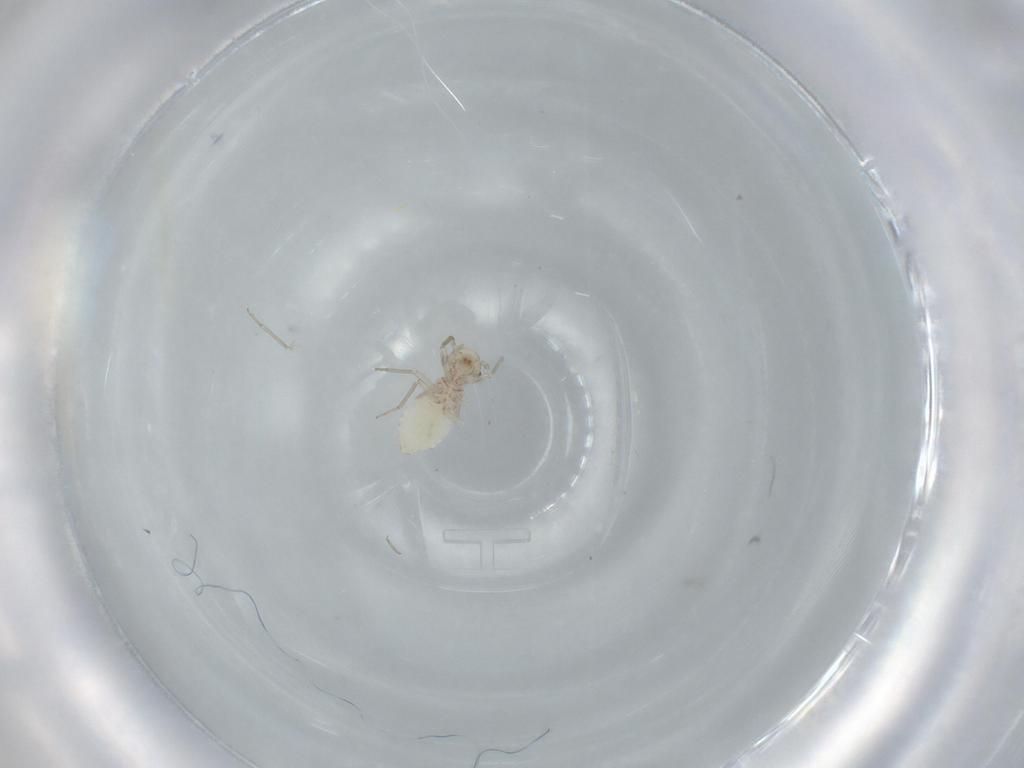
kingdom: Animalia
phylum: Arthropoda
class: Insecta
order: Psocodea
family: Lachesillidae
